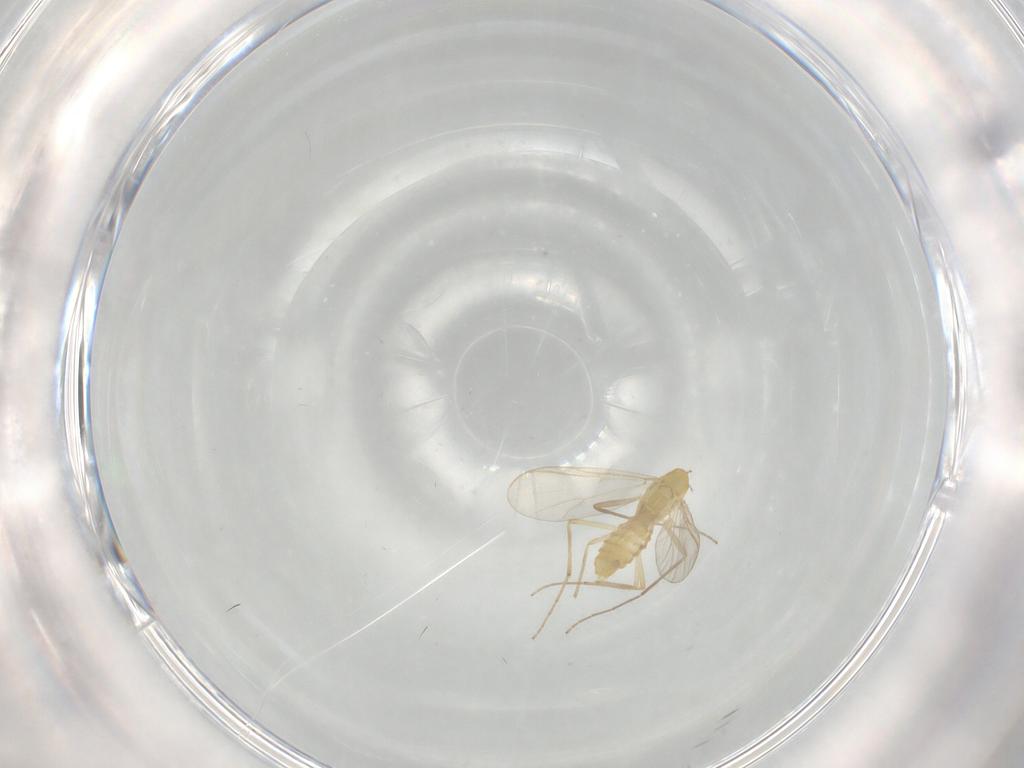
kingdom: Animalia
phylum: Arthropoda
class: Insecta
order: Diptera
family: Chironomidae
